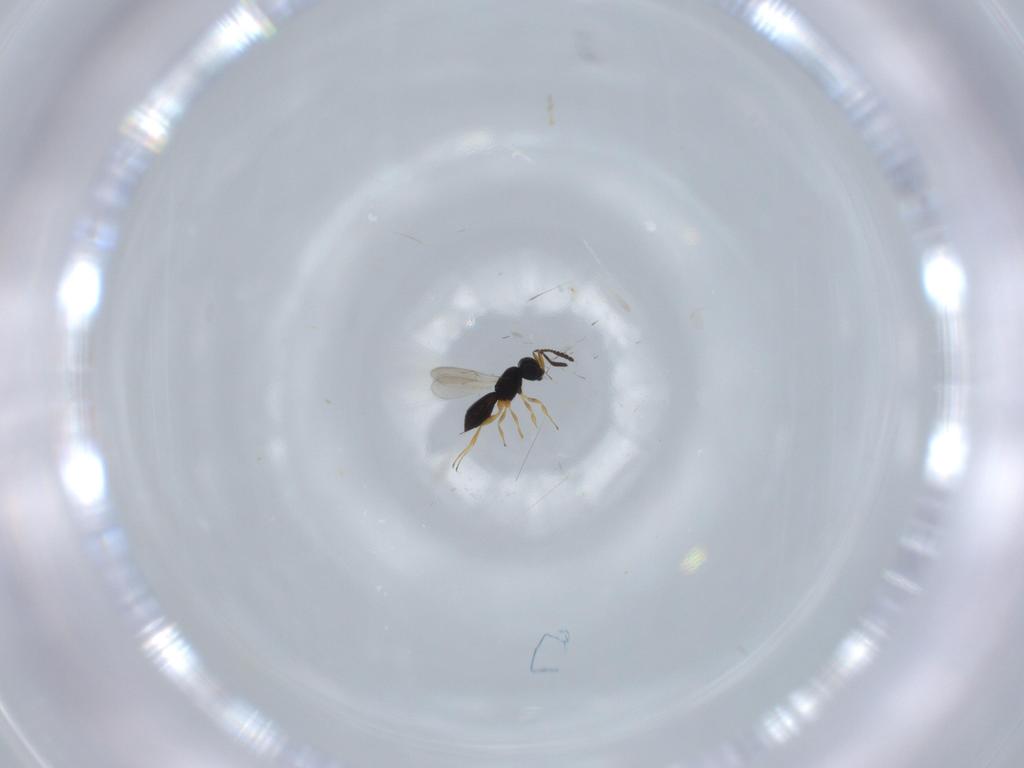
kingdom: Animalia
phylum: Arthropoda
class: Insecta
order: Hymenoptera
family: Scelionidae
